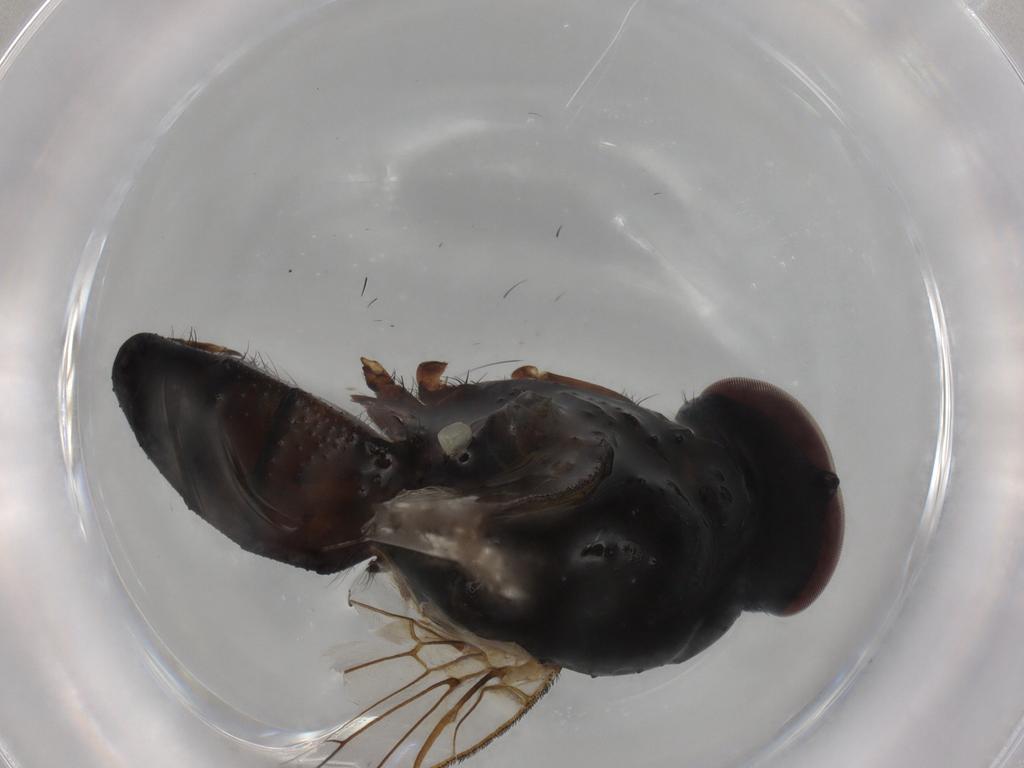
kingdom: Animalia
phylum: Arthropoda
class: Insecta
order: Diptera
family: Anthomyiidae
